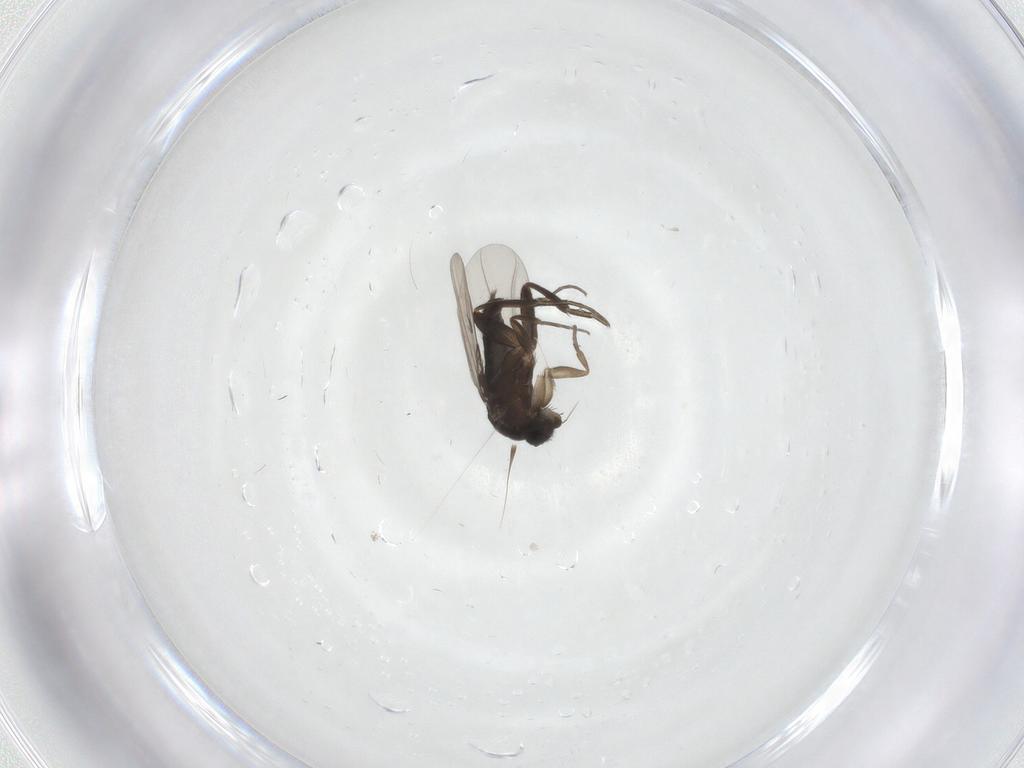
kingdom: Animalia
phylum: Arthropoda
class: Insecta
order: Diptera
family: Phoridae
